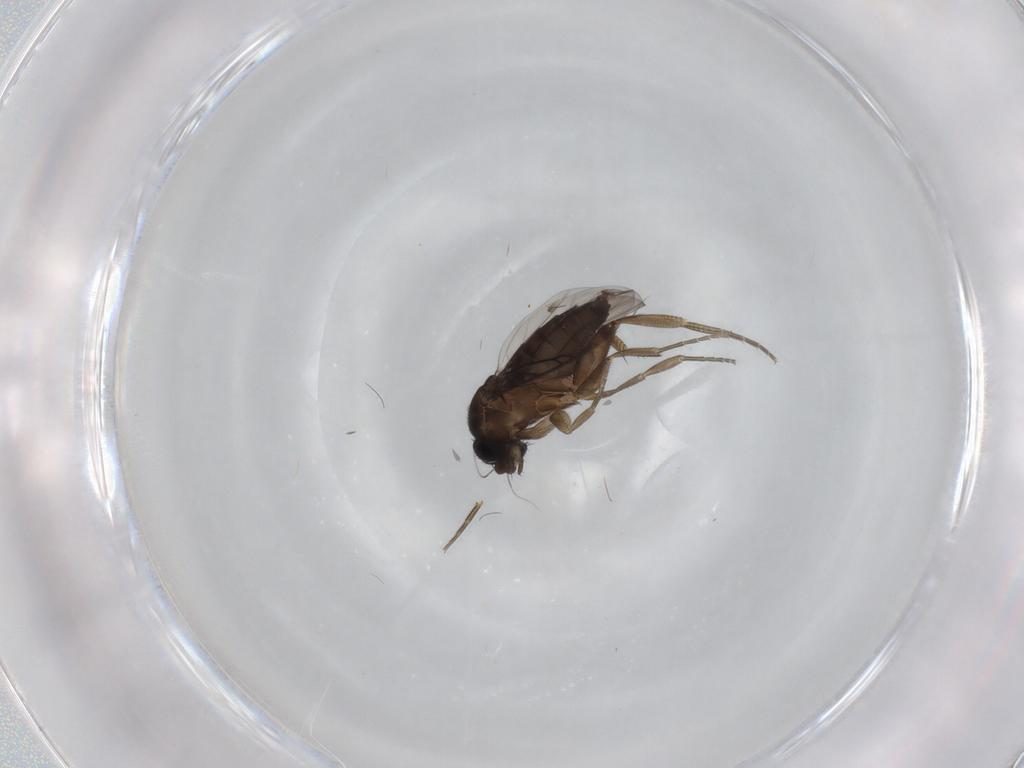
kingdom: Animalia
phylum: Arthropoda
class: Insecta
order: Diptera
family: Phoridae
